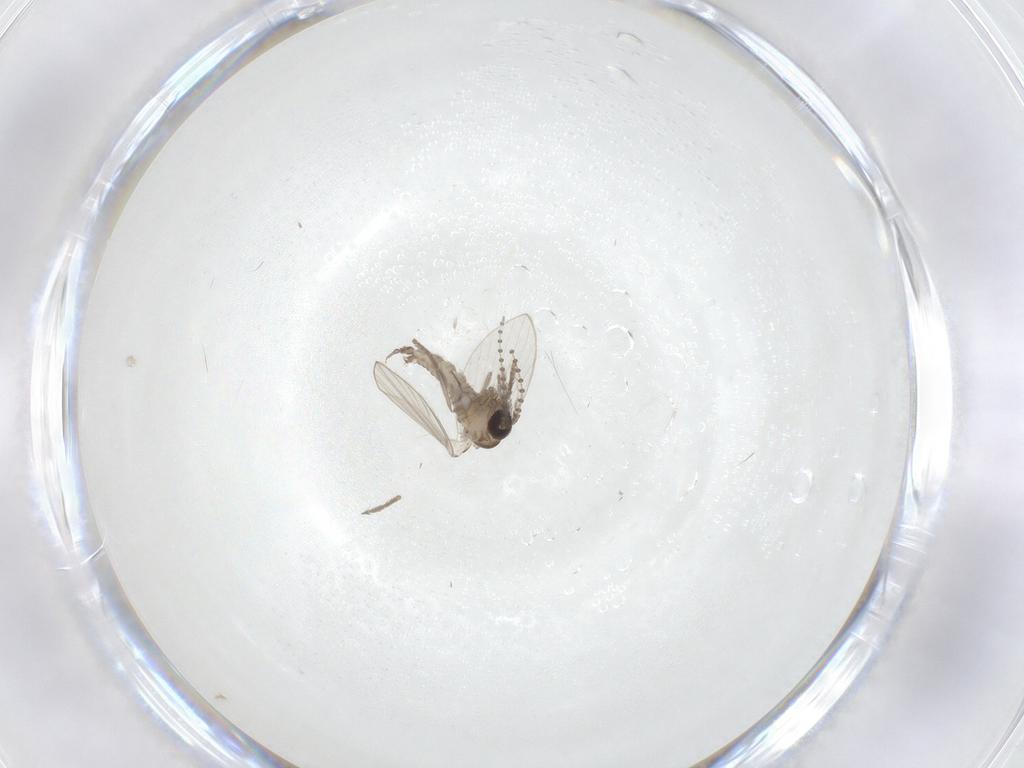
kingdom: Animalia
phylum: Arthropoda
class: Insecta
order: Diptera
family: Psychodidae
